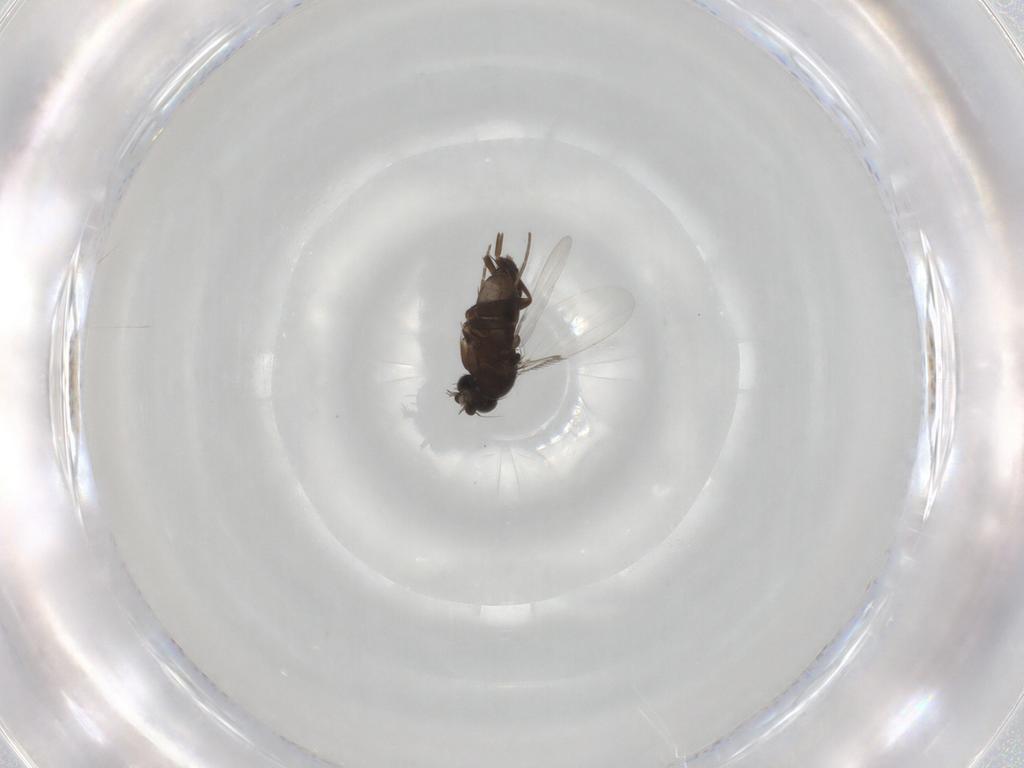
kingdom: Animalia
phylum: Arthropoda
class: Insecta
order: Diptera
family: Phoridae
